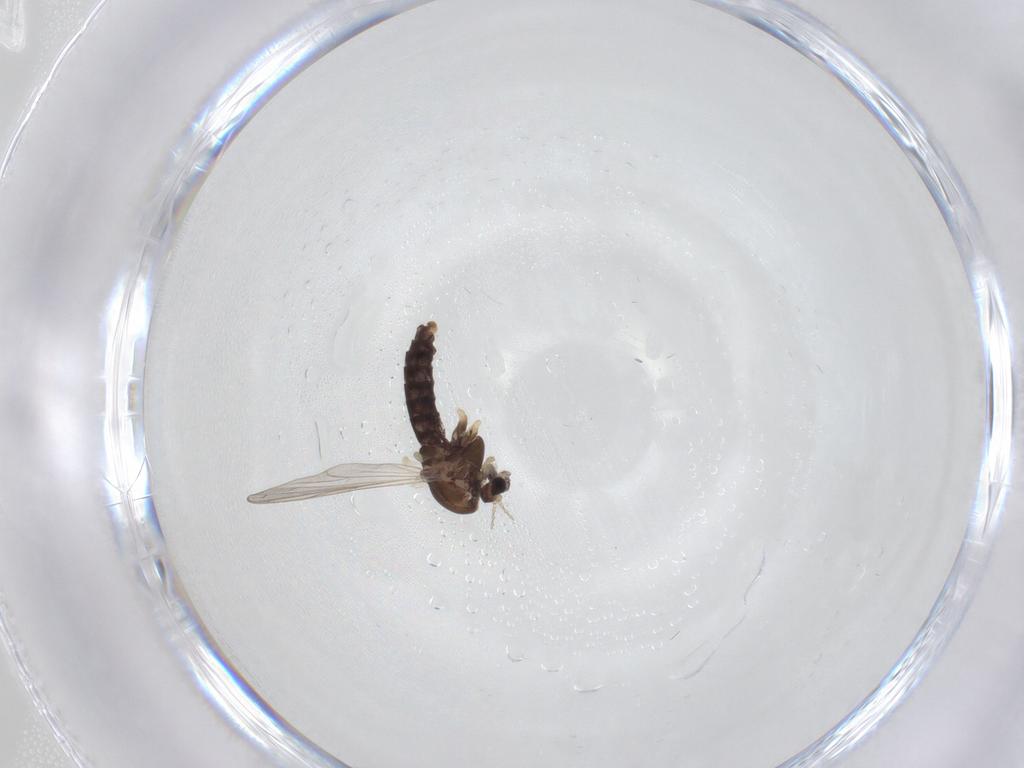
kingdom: Animalia
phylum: Arthropoda
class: Insecta
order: Diptera
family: Chironomidae
